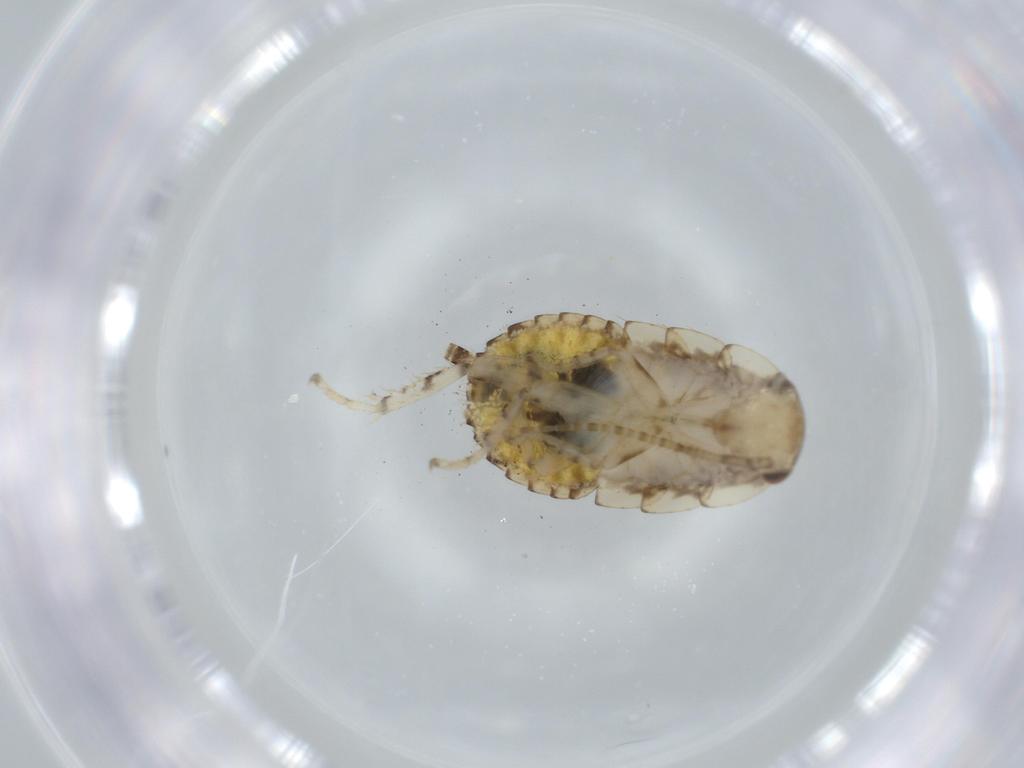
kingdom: Animalia
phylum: Arthropoda
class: Insecta
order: Blattodea
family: Ectobiidae
